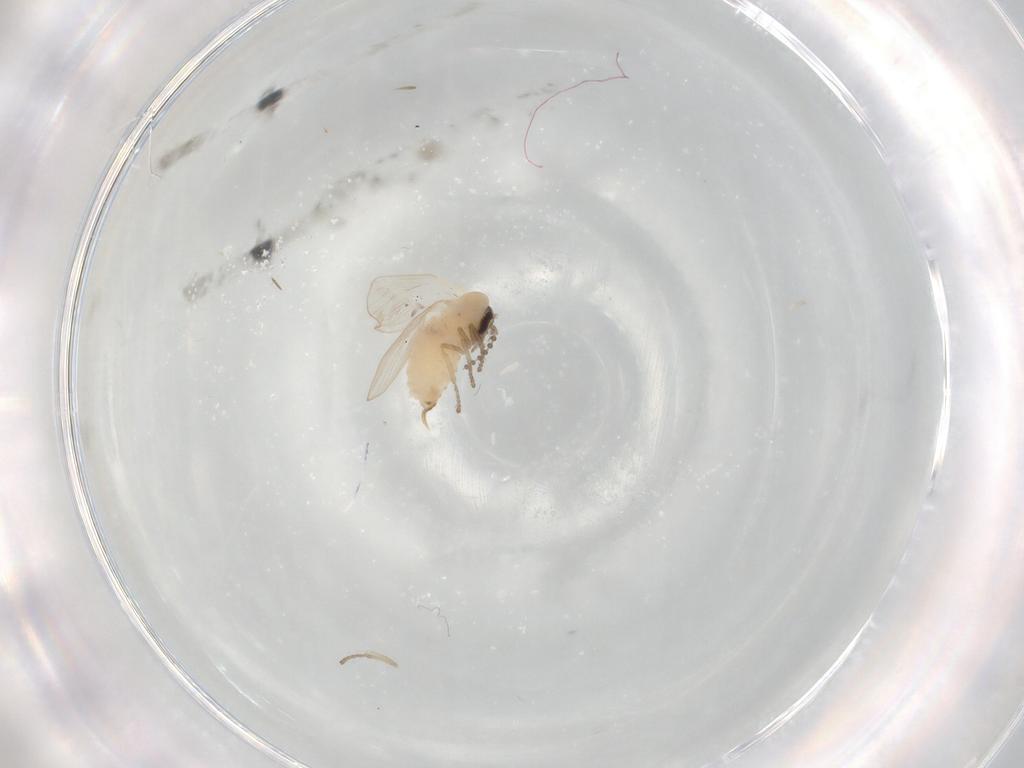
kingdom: Animalia
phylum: Arthropoda
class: Insecta
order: Diptera
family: Psychodidae
